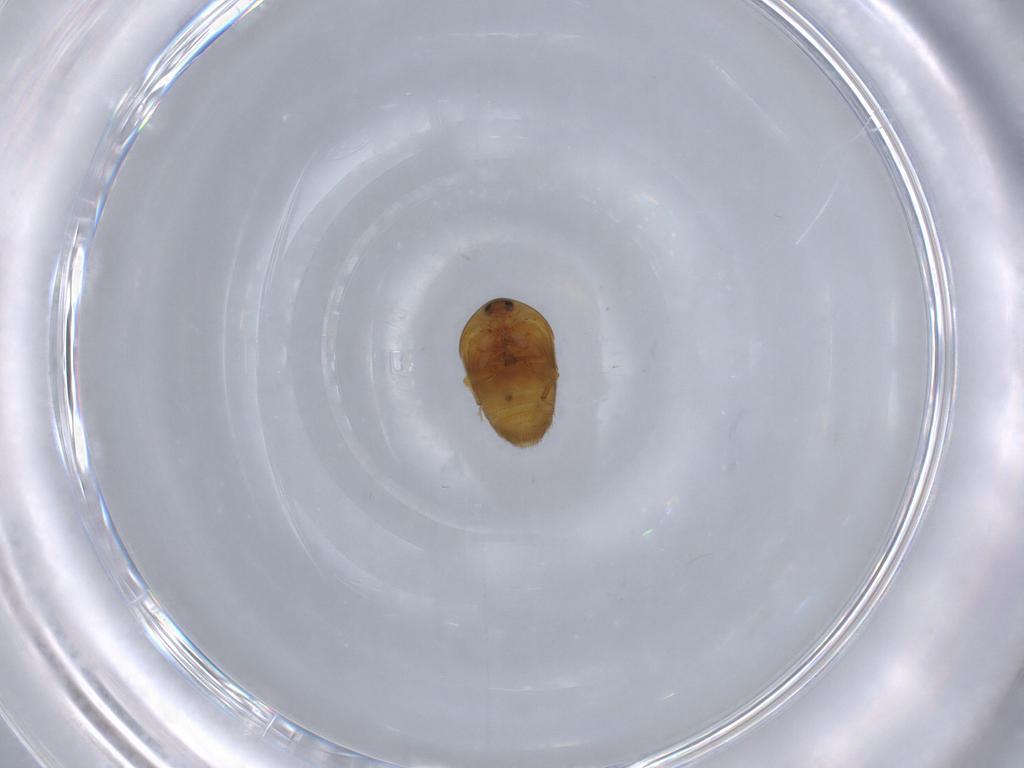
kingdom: Animalia
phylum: Arthropoda
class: Insecta
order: Coleoptera
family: Corylophidae
